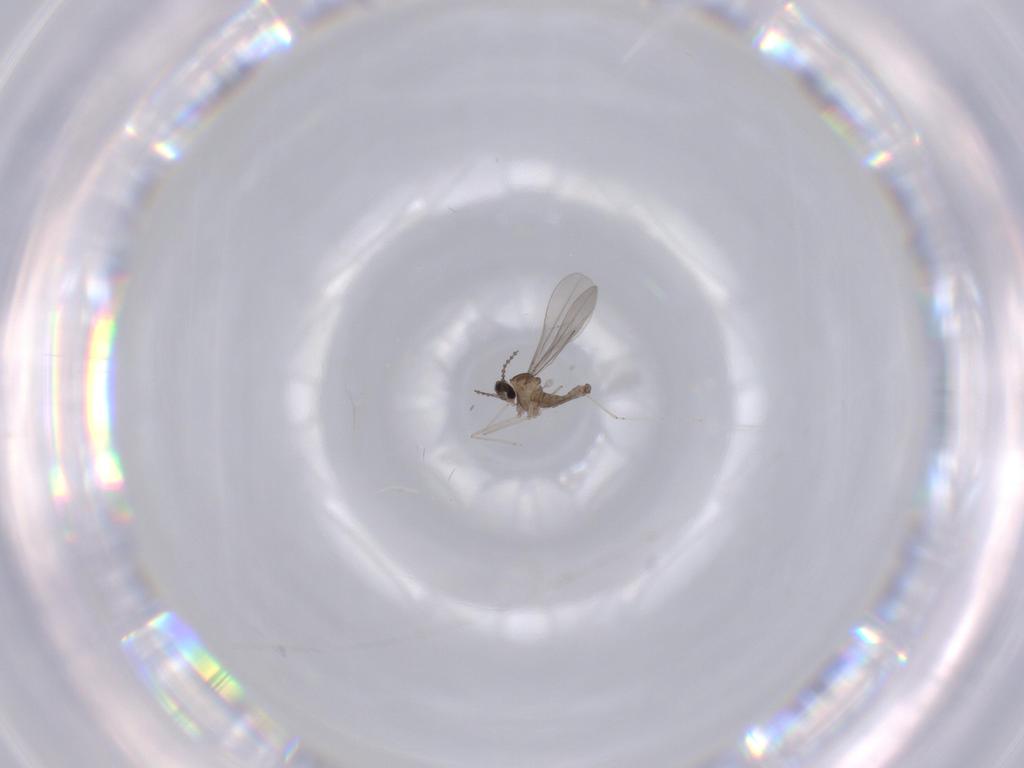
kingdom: Animalia
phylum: Arthropoda
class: Insecta
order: Diptera
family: Cecidomyiidae
